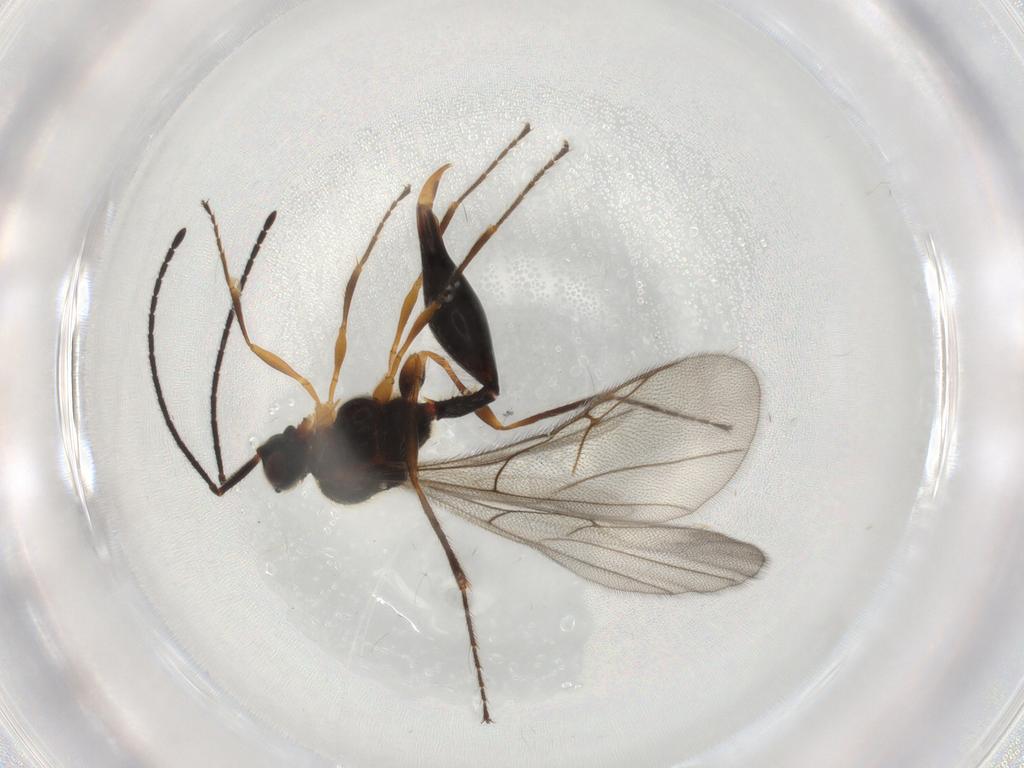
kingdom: Animalia
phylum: Arthropoda
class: Insecta
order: Hymenoptera
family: Platygastridae
